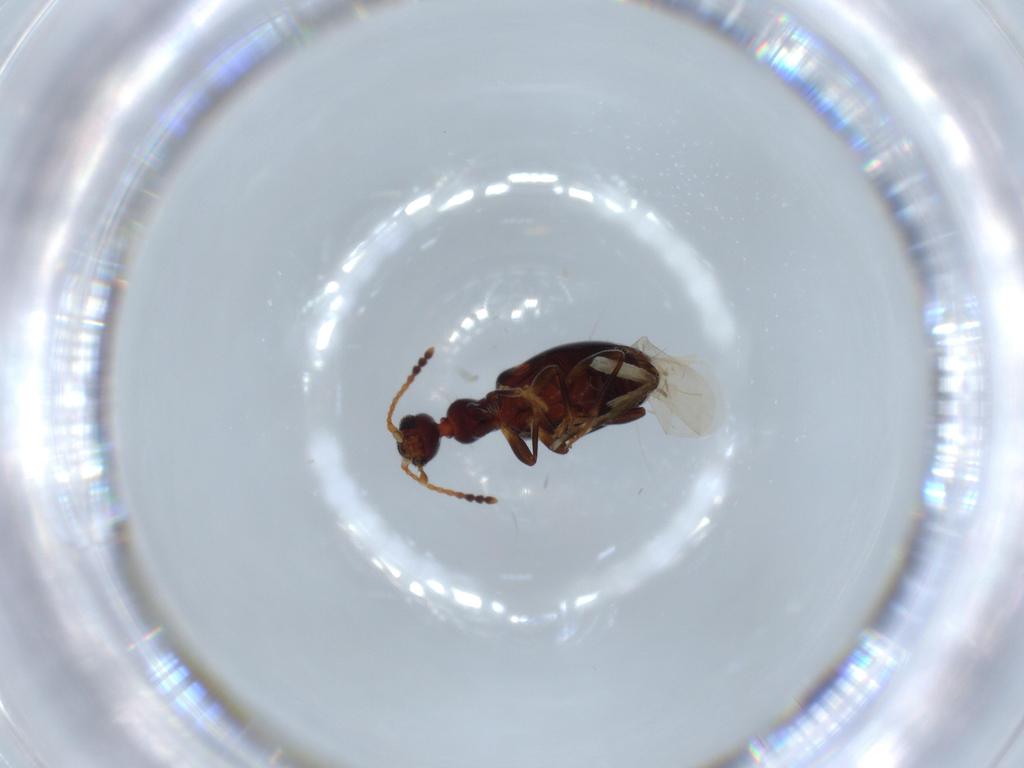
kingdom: Animalia
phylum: Arthropoda
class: Insecta
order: Coleoptera
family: Anthicidae
